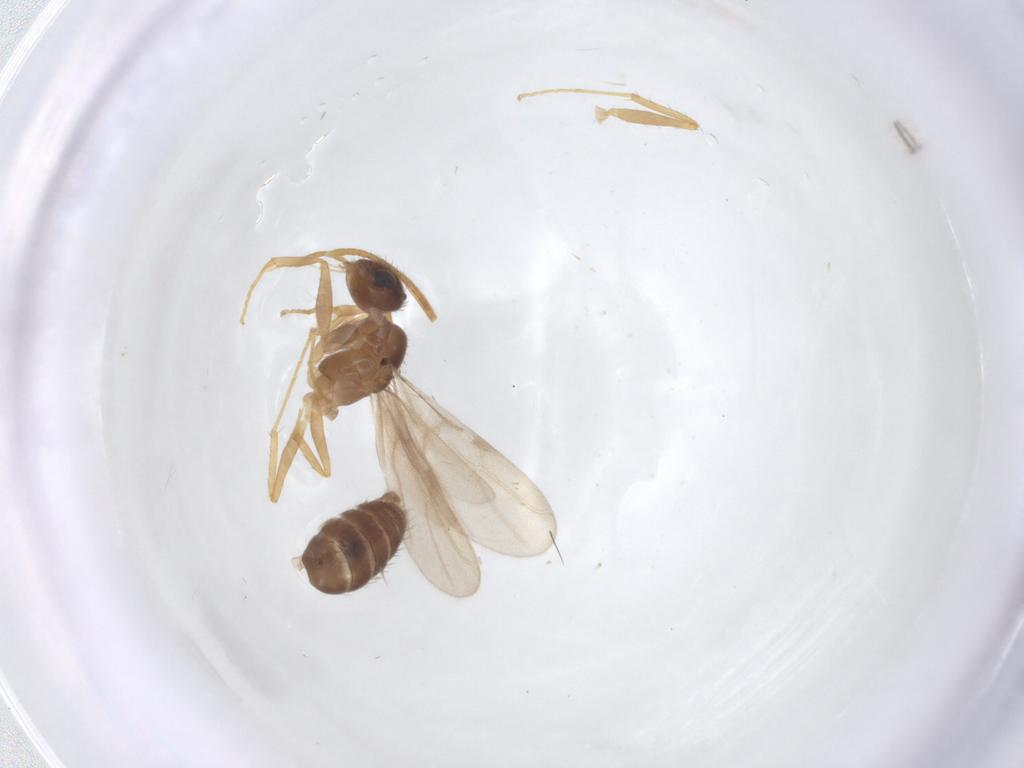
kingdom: Animalia
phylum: Arthropoda
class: Insecta
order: Hymenoptera
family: Formicidae
